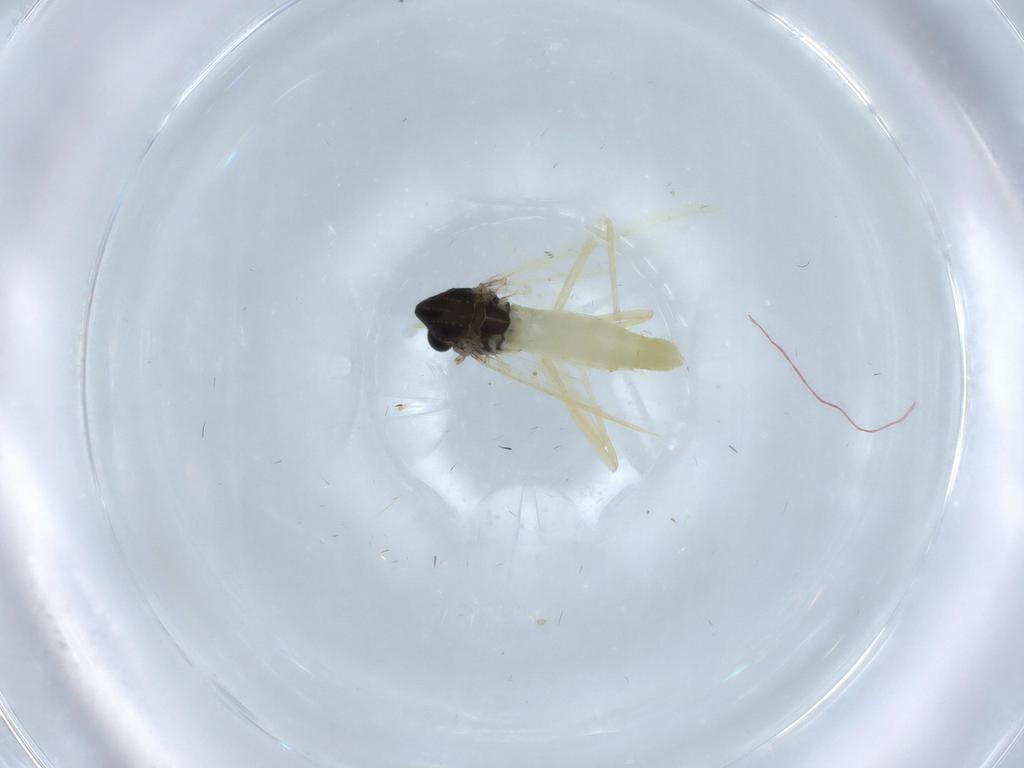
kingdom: Animalia
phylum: Arthropoda
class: Insecta
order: Diptera
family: Chironomidae
